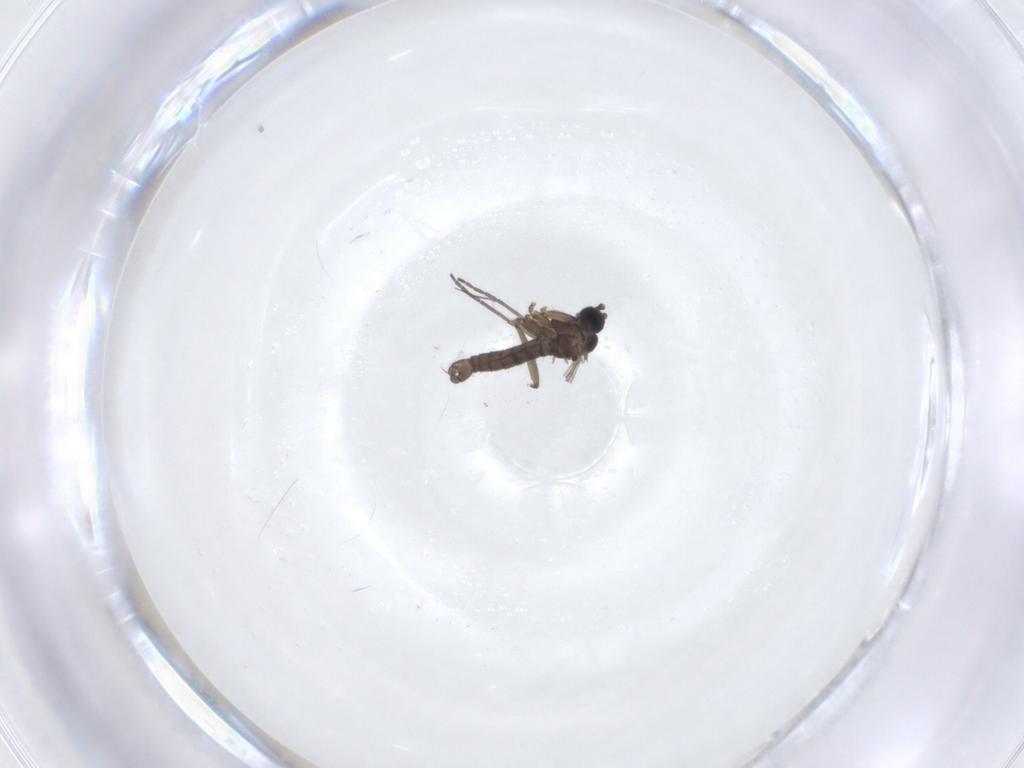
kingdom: Animalia
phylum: Arthropoda
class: Insecta
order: Diptera
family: Sciaridae
